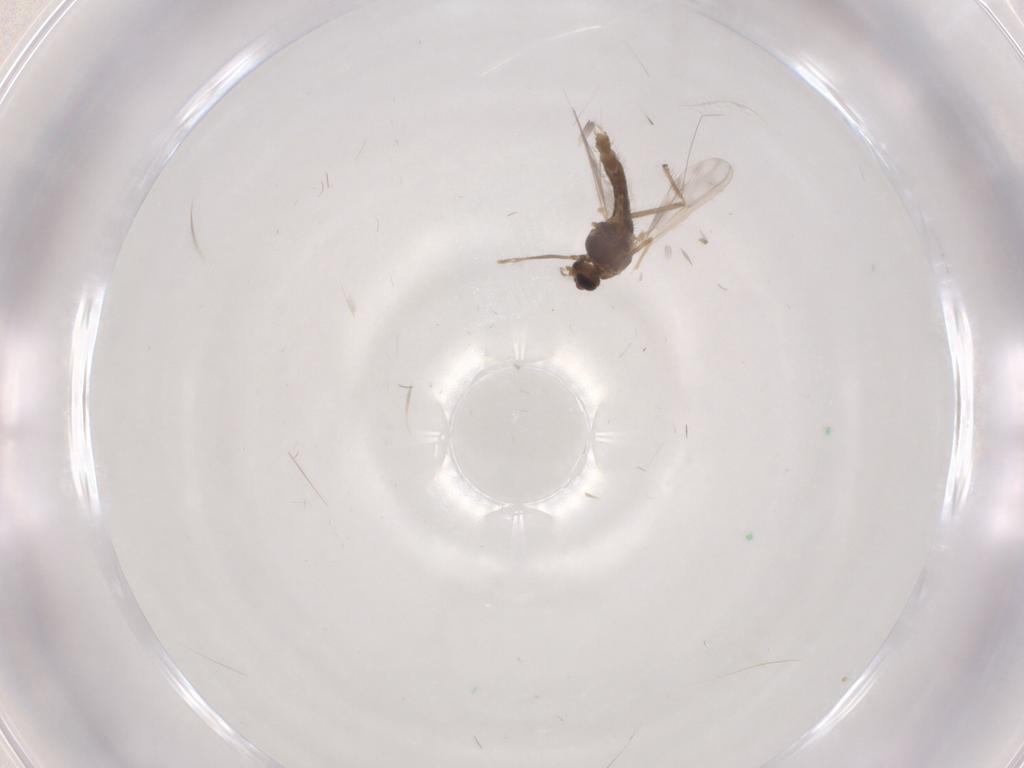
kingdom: Animalia
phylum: Arthropoda
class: Insecta
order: Diptera
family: Chironomidae
